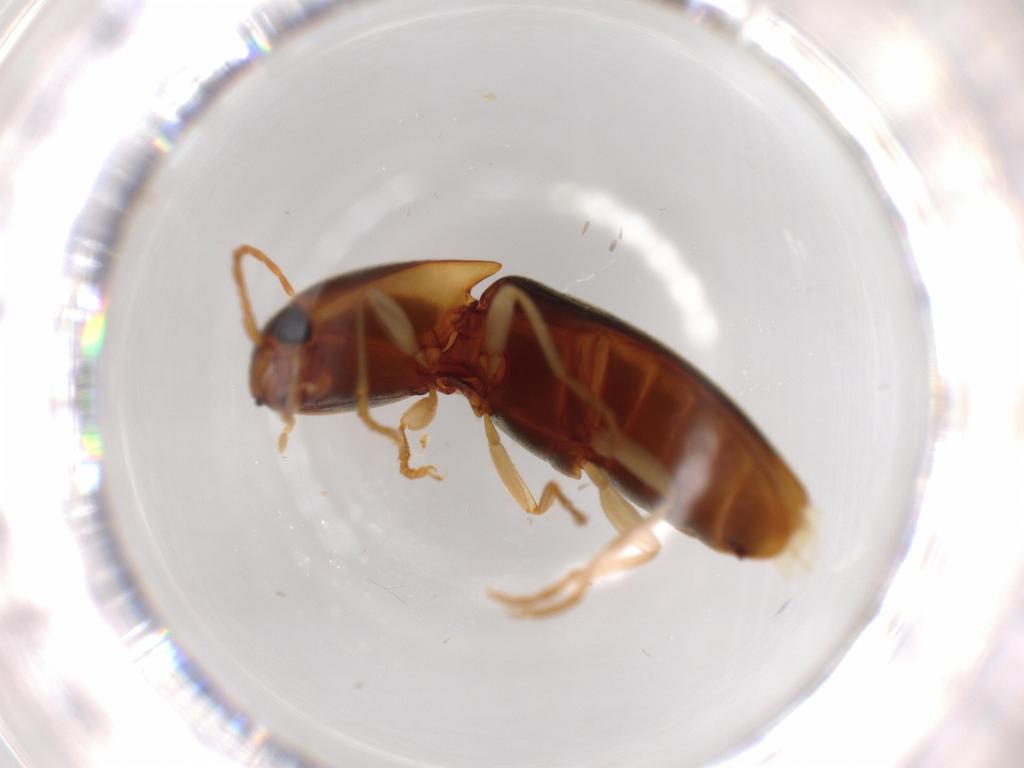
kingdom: Animalia
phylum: Arthropoda
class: Insecta
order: Coleoptera
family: Elateridae
